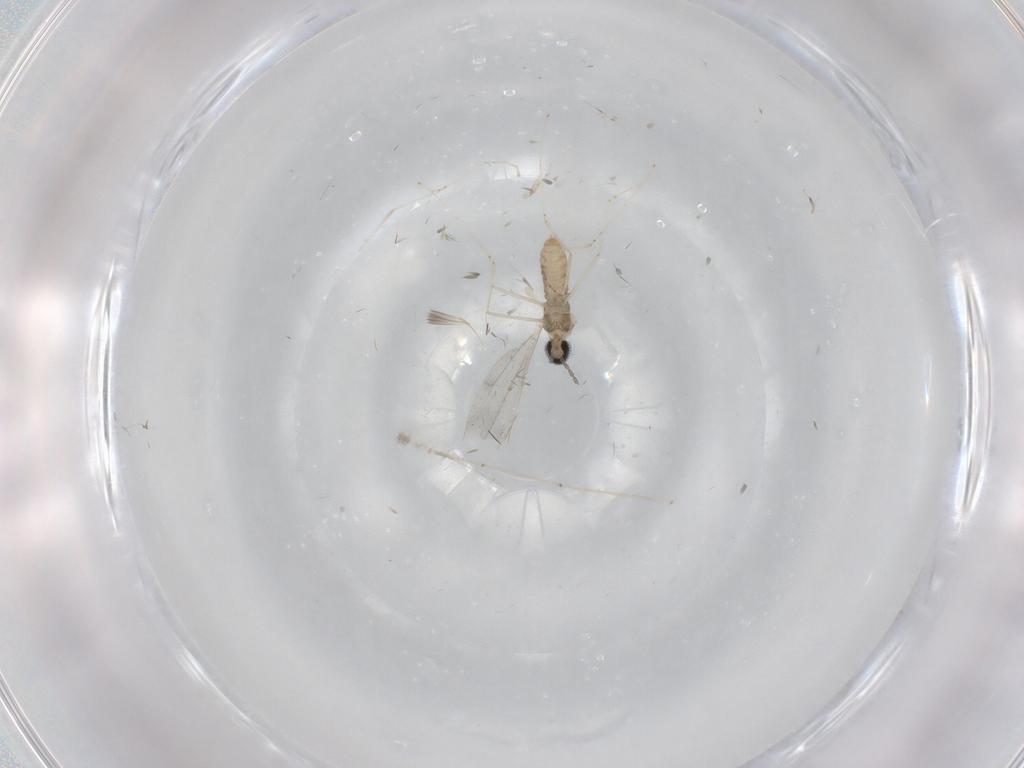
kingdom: Animalia
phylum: Arthropoda
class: Insecta
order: Diptera
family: Cecidomyiidae
